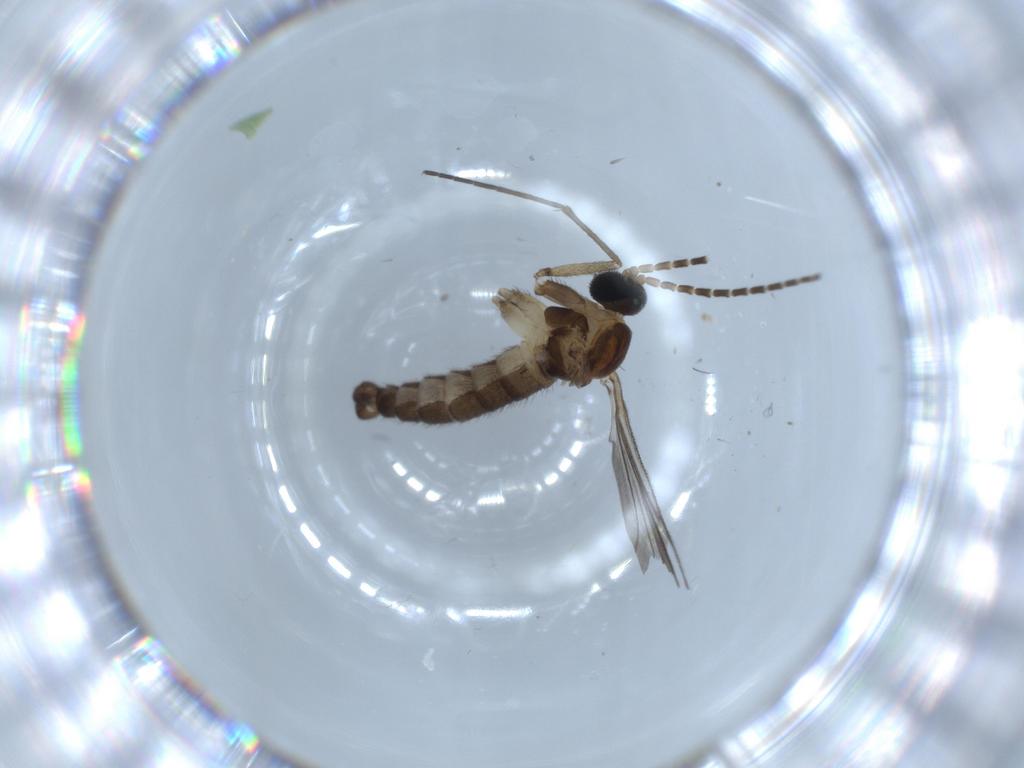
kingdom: Animalia
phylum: Arthropoda
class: Insecta
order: Diptera
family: Sciaridae
